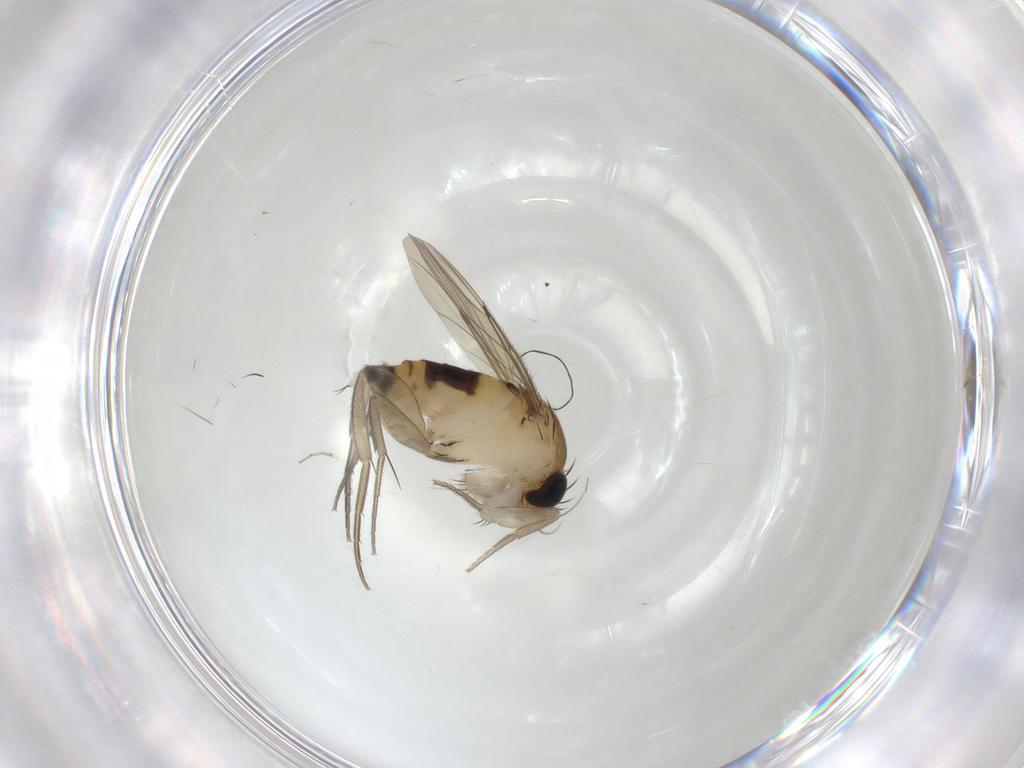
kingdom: Animalia
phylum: Arthropoda
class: Insecta
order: Diptera
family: Phoridae
